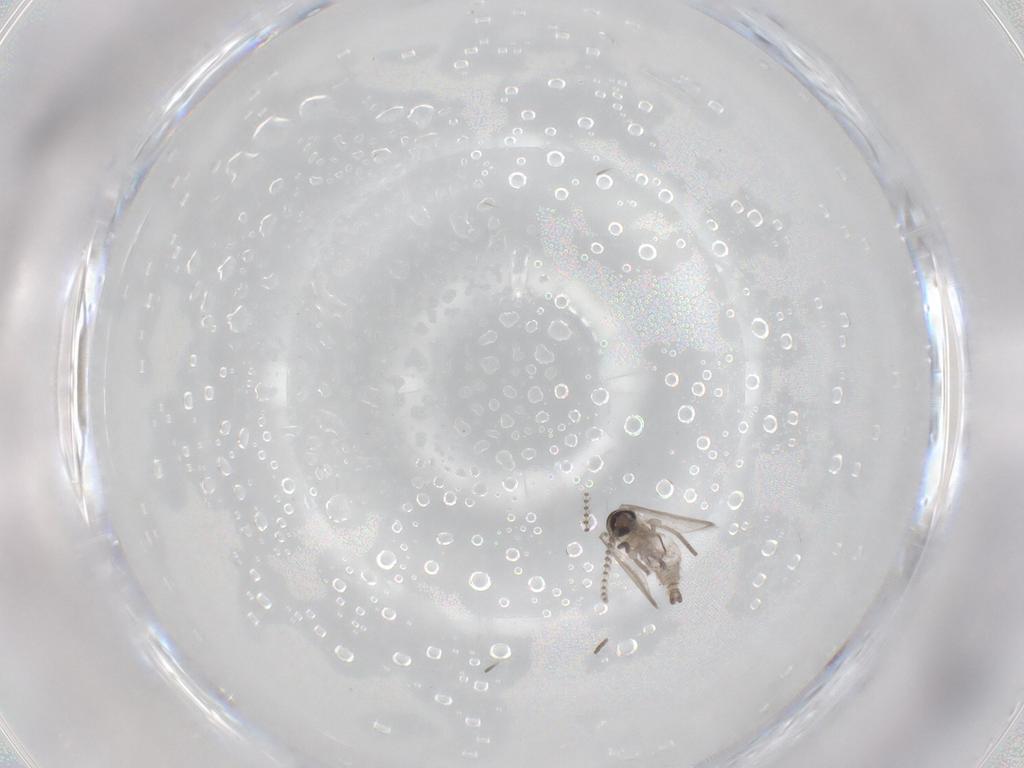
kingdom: Animalia
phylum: Arthropoda
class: Insecta
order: Diptera
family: Psychodidae
